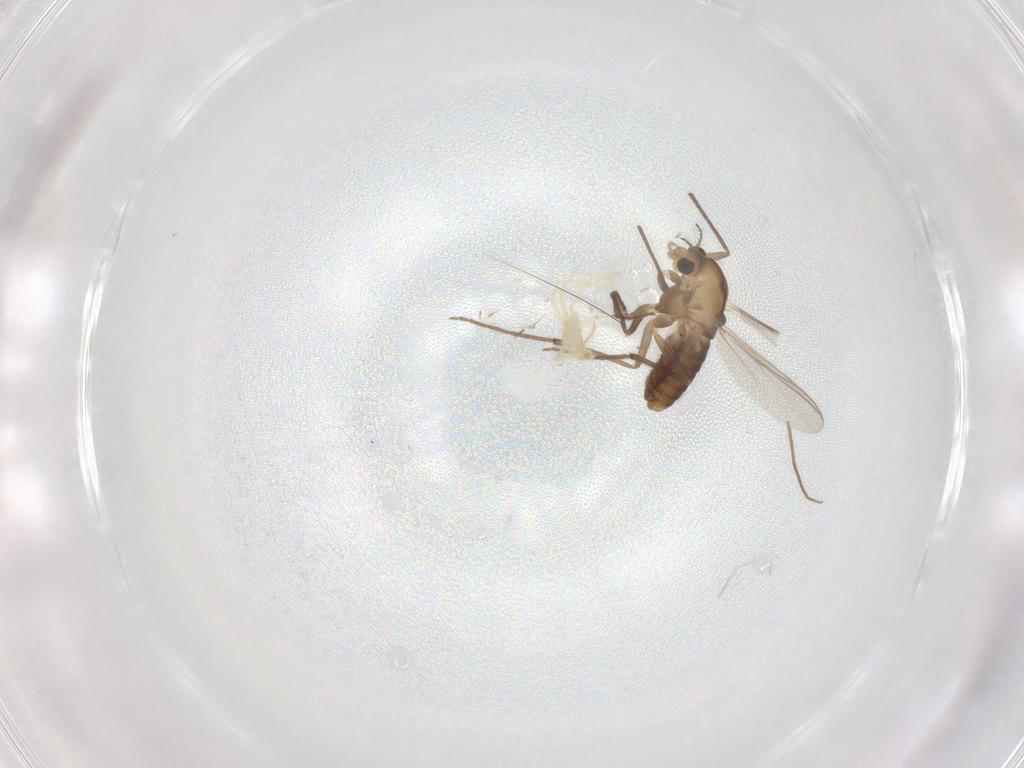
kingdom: Animalia
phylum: Arthropoda
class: Insecta
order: Diptera
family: Chironomidae
